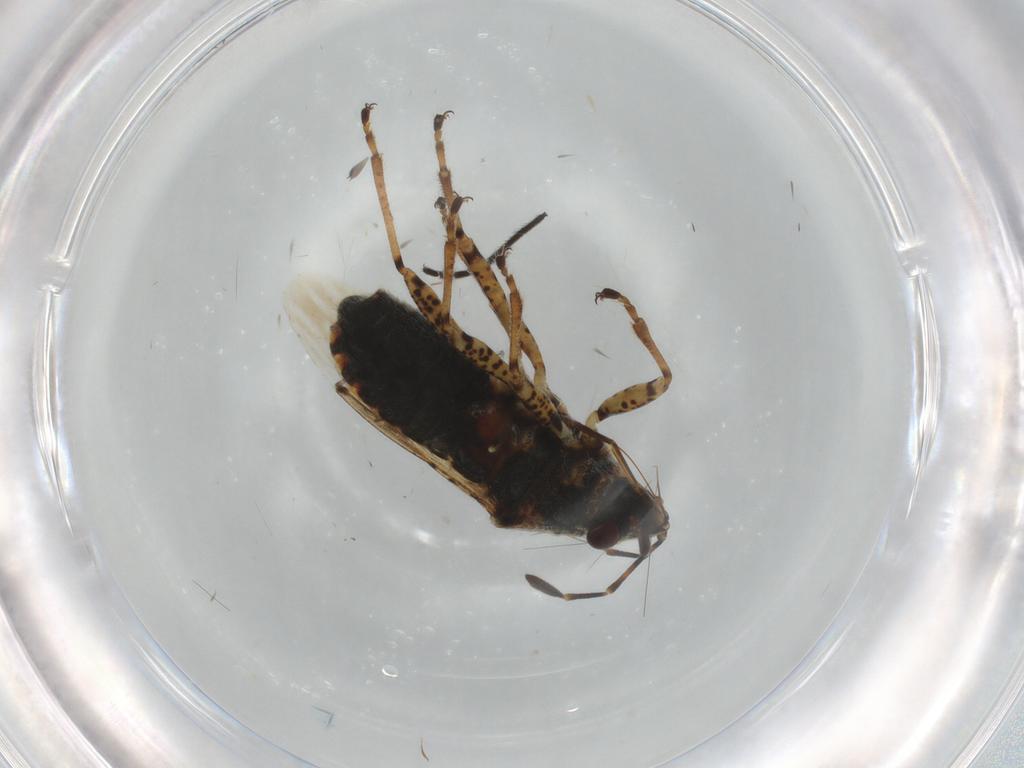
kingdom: Animalia
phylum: Arthropoda
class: Insecta
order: Hemiptera
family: Lygaeidae
